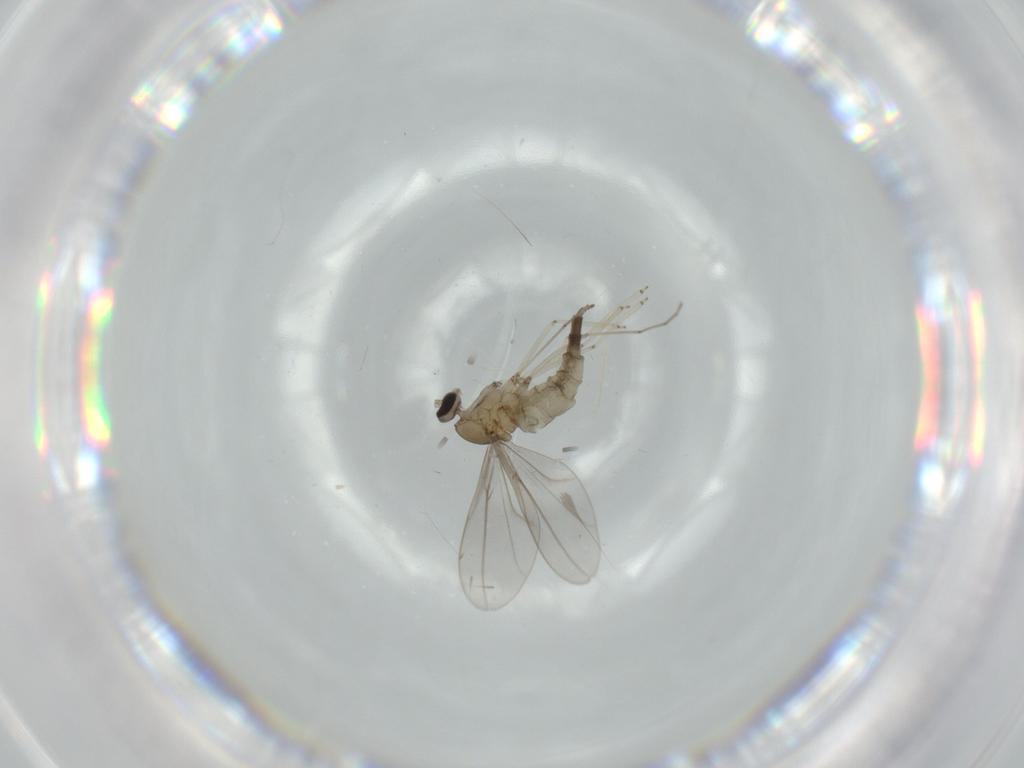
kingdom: Animalia
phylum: Arthropoda
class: Insecta
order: Diptera
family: Cecidomyiidae
